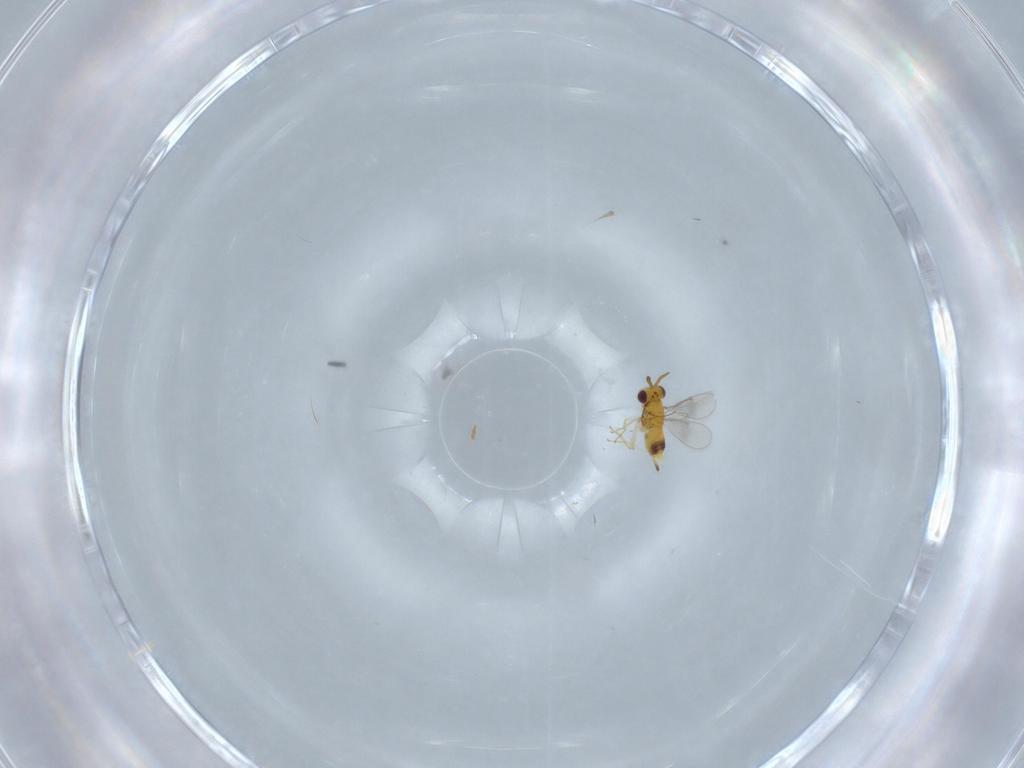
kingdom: Animalia
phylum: Arthropoda
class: Insecta
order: Hymenoptera
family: Aphelinidae
